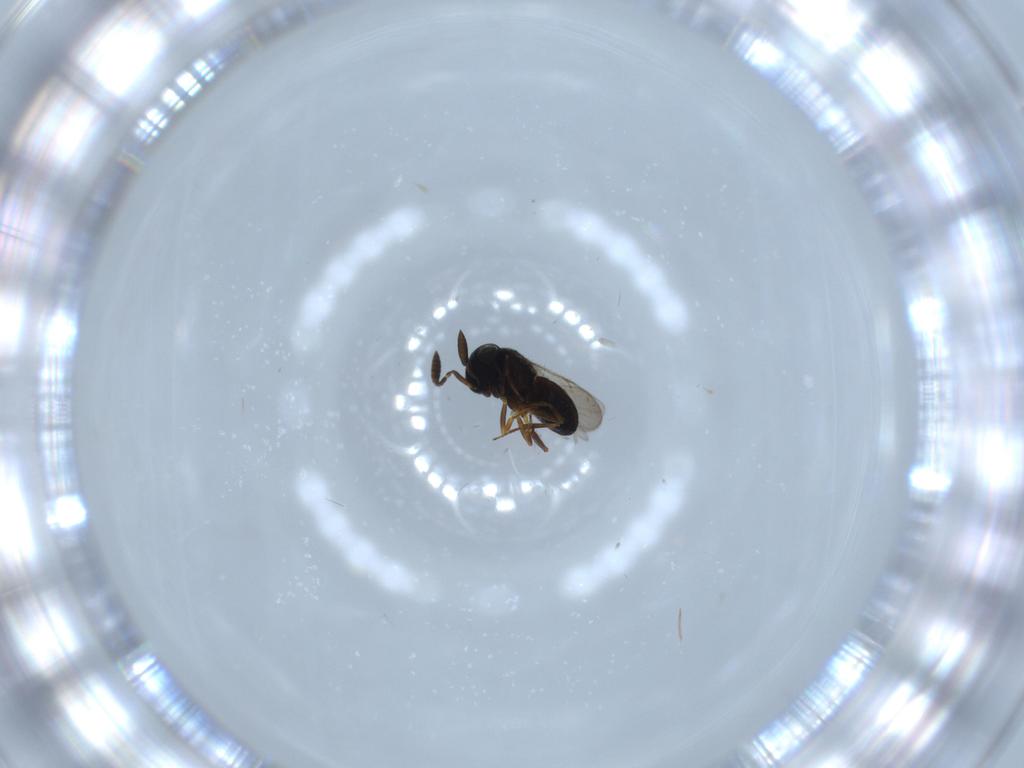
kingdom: Animalia
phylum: Arthropoda
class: Insecta
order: Hymenoptera
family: Scelionidae
